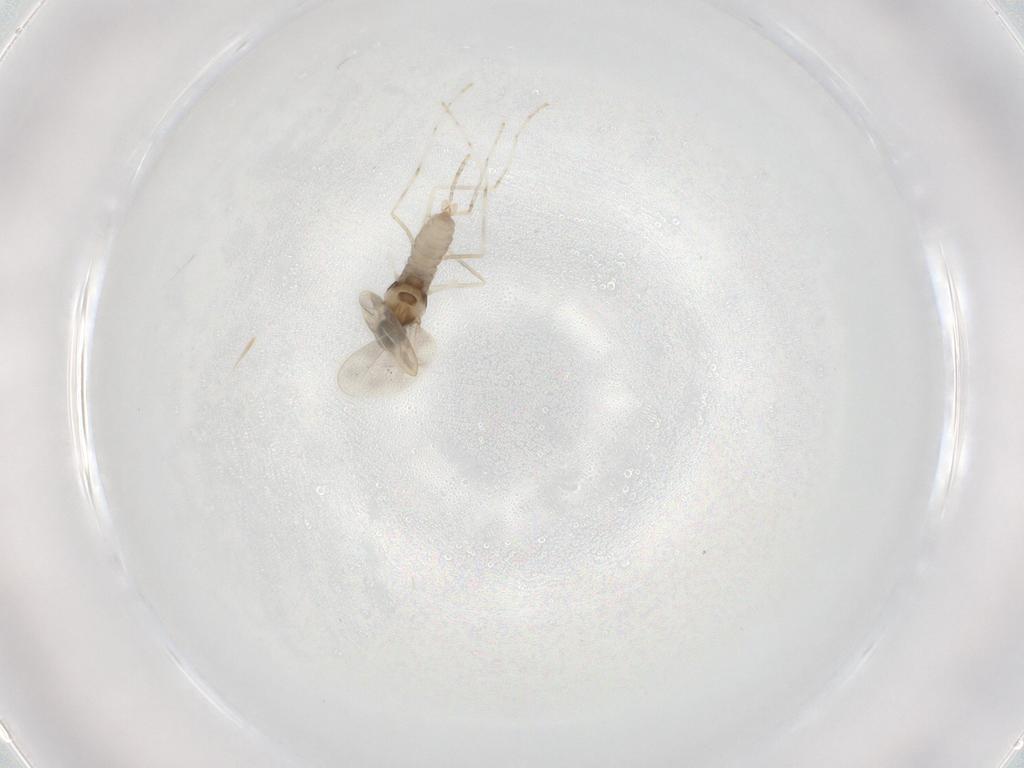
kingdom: Animalia
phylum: Arthropoda
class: Insecta
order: Diptera
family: Cecidomyiidae
